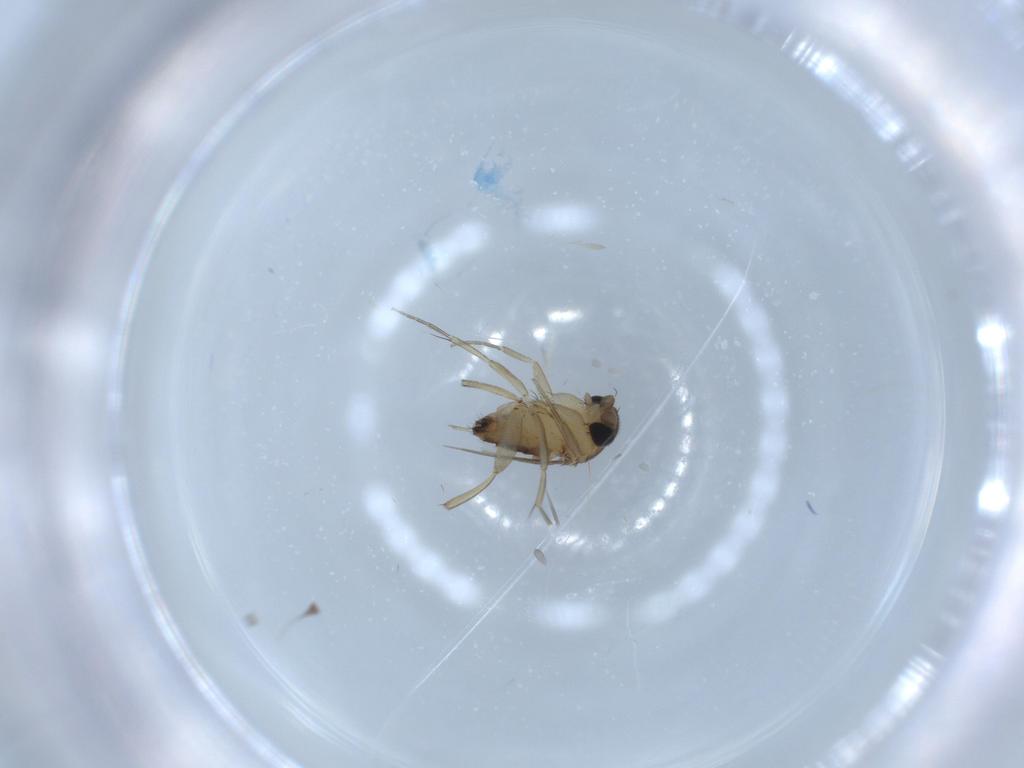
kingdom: Animalia
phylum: Arthropoda
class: Insecta
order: Diptera
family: Phoridae
